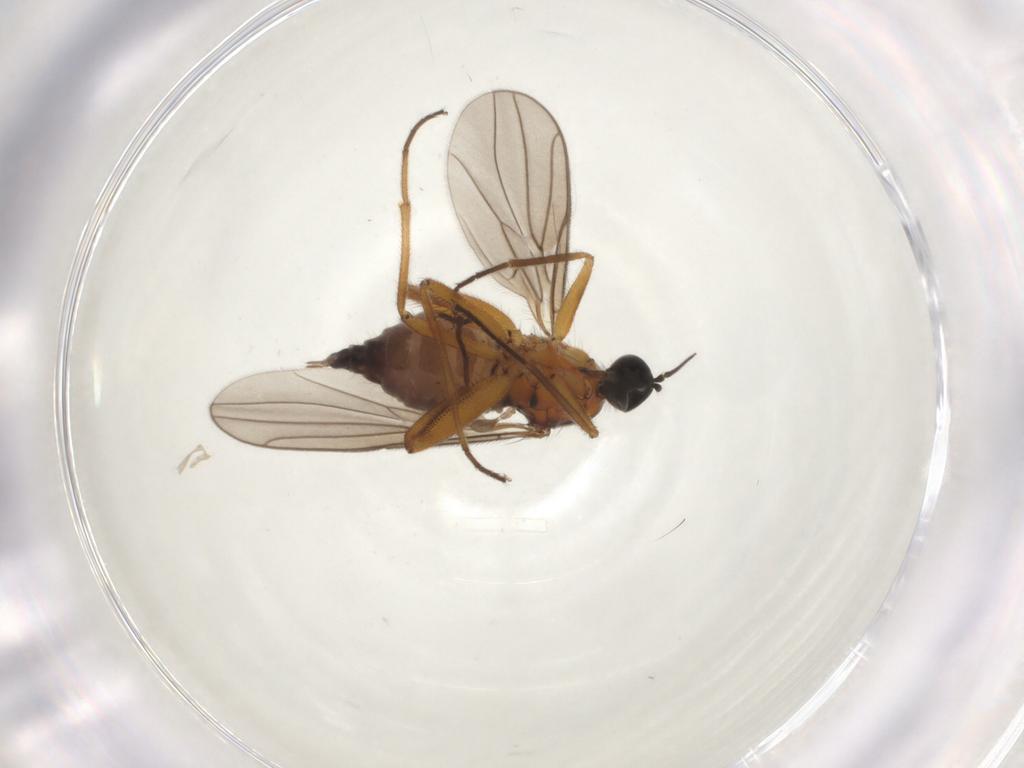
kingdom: Animalia
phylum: Arthropoda
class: Insecta
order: Diptera
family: Hybotidae
